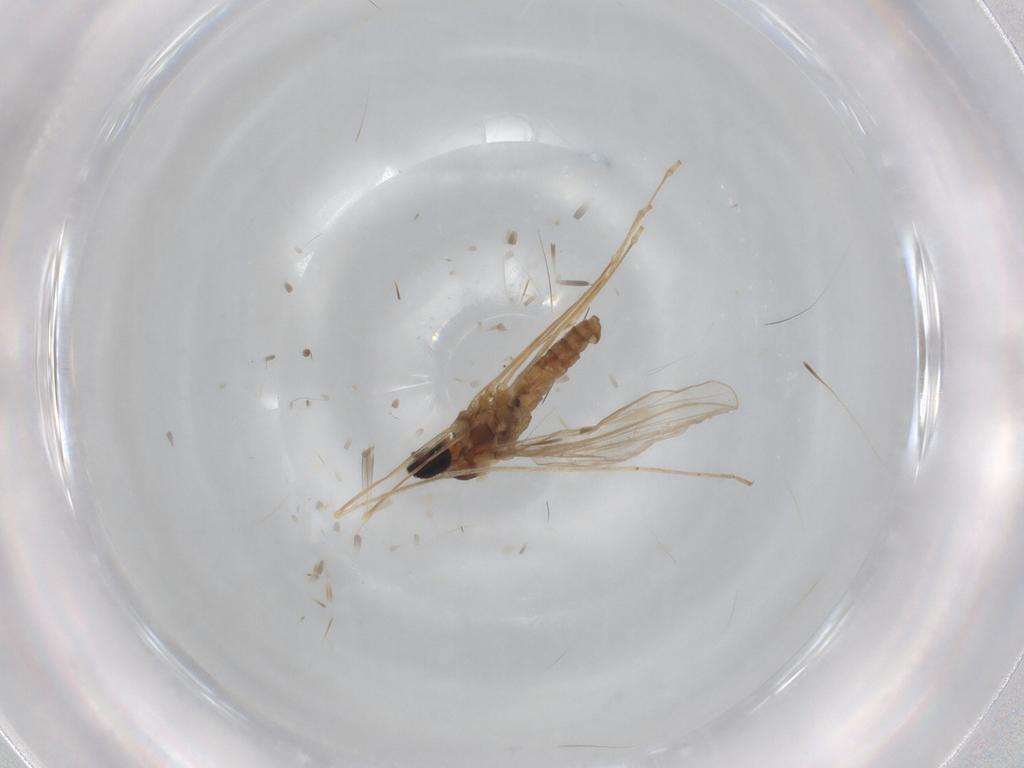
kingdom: Animalia
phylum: Arthropoda
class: Insecta
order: Diptera
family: Cecidomyiidae
